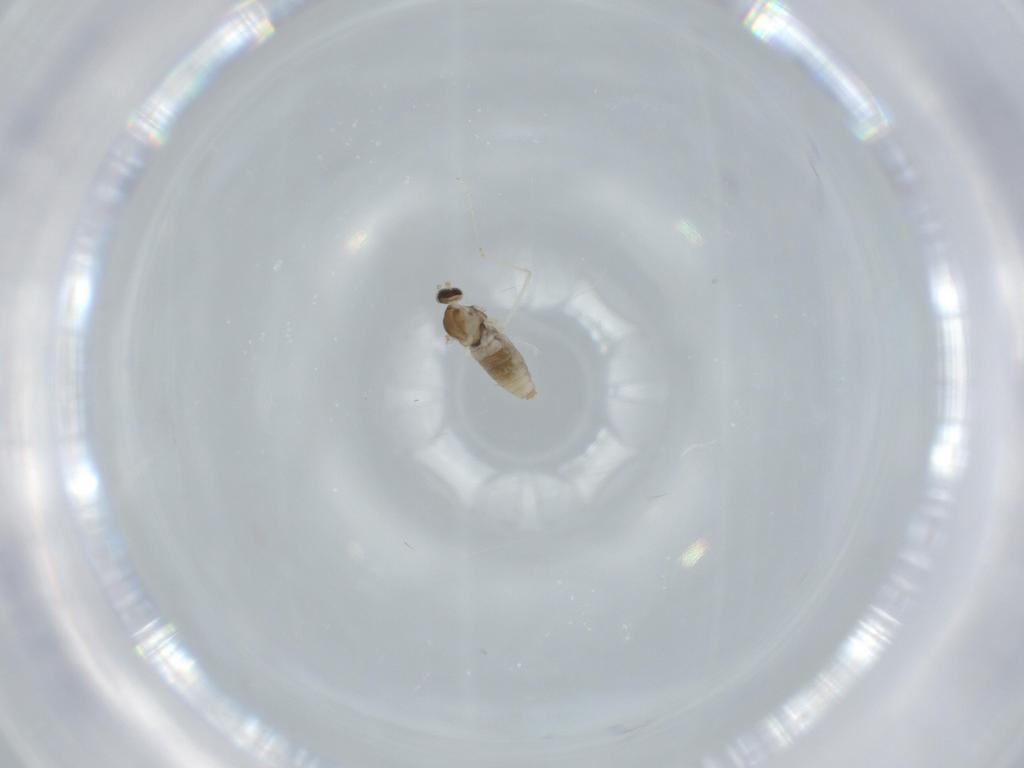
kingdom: Animalia
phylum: Arthropoda
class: Insecta
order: Diptera
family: Cecidomyiidae
